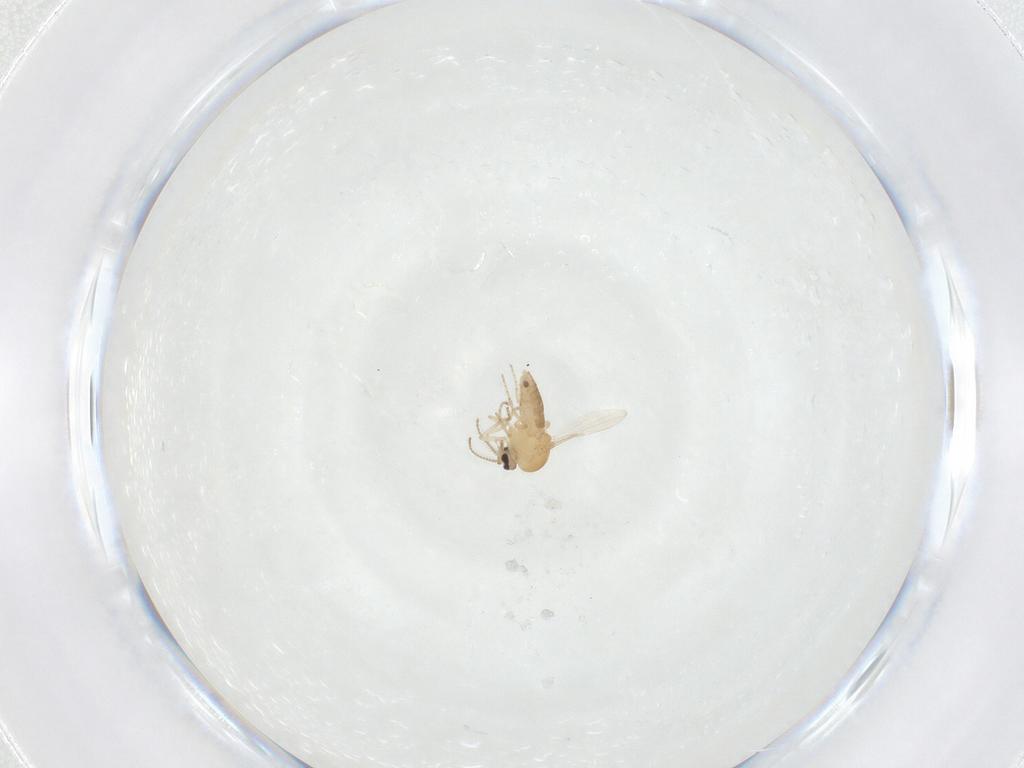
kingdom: Animalia
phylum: Arthropoda
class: Insecta
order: Diptera
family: Ceratopogonidae
